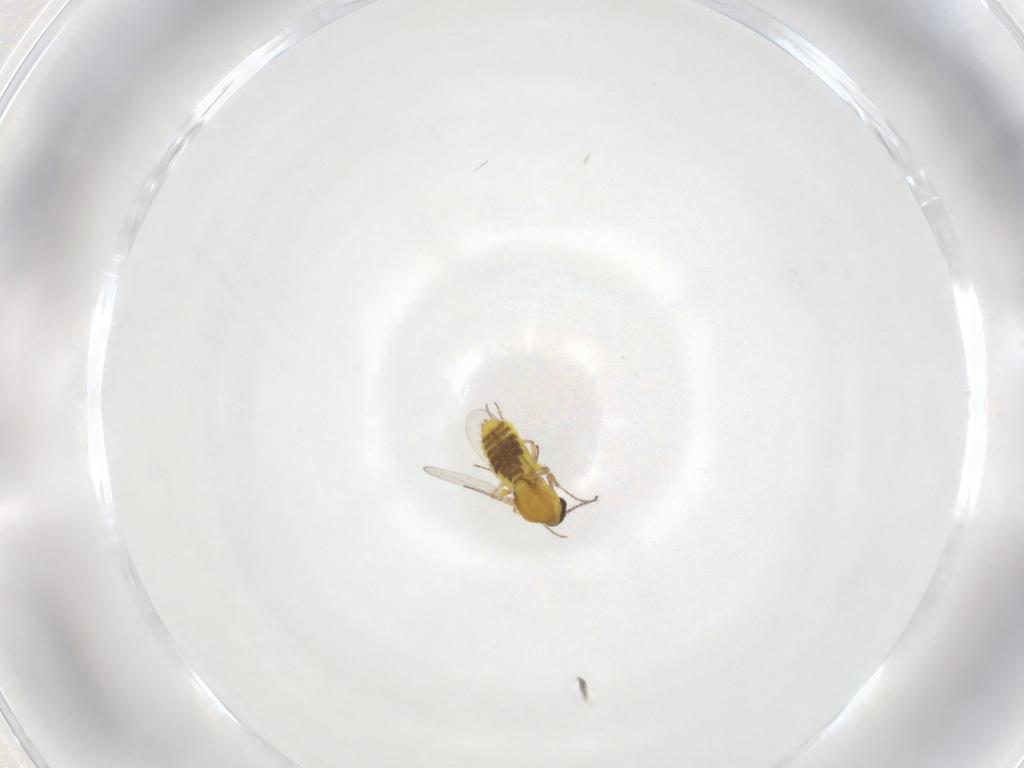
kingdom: Animalia
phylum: Arthropoda
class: Insecta
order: Diptera
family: Ceratopogonidae
